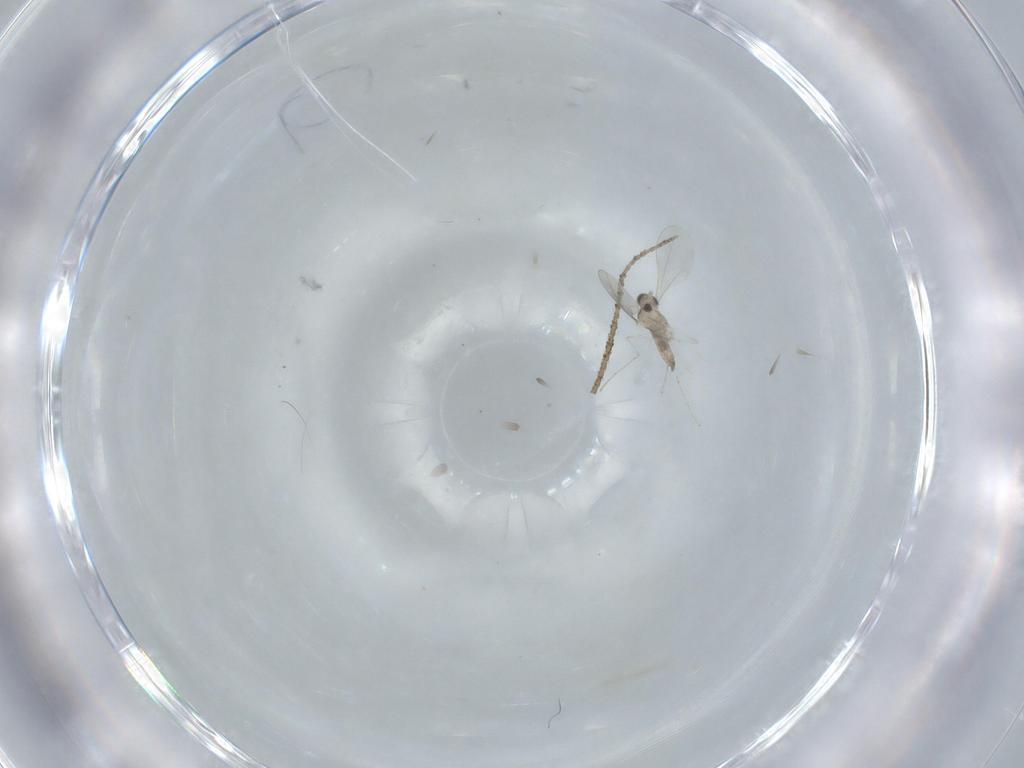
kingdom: Animalia
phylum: Arthropoda
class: Insecta
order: Diptera
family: Cecidomyiidae
